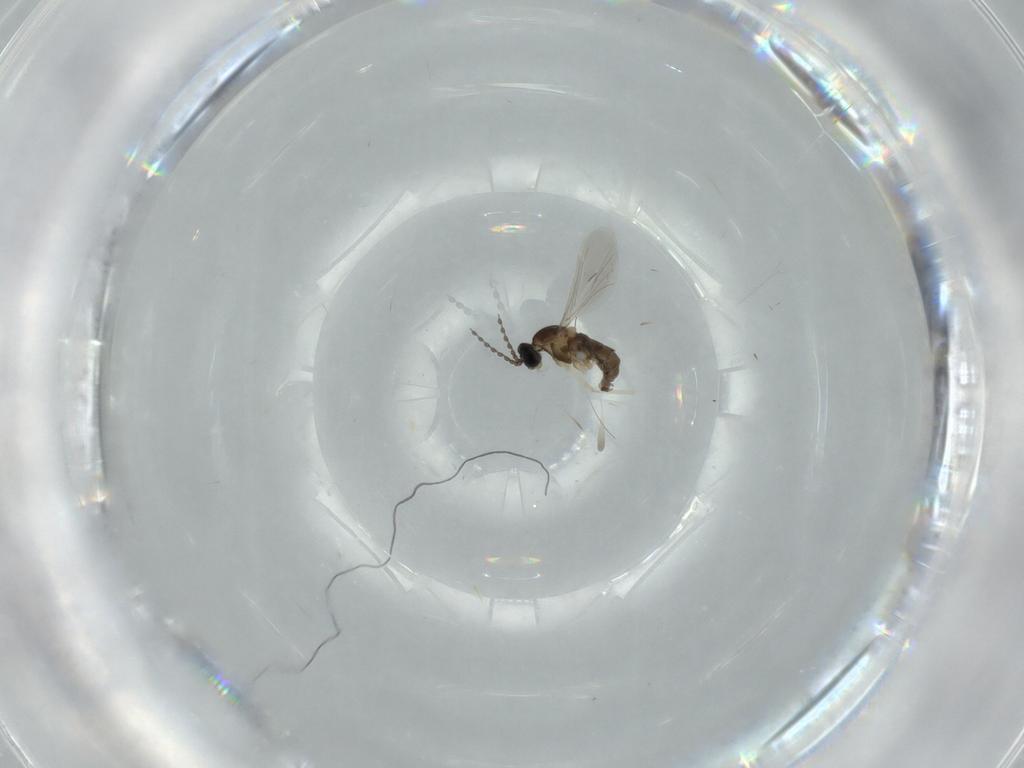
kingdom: Animalia
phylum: Arthropoda
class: Insecta
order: Diptera
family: Cecidomyiidae
